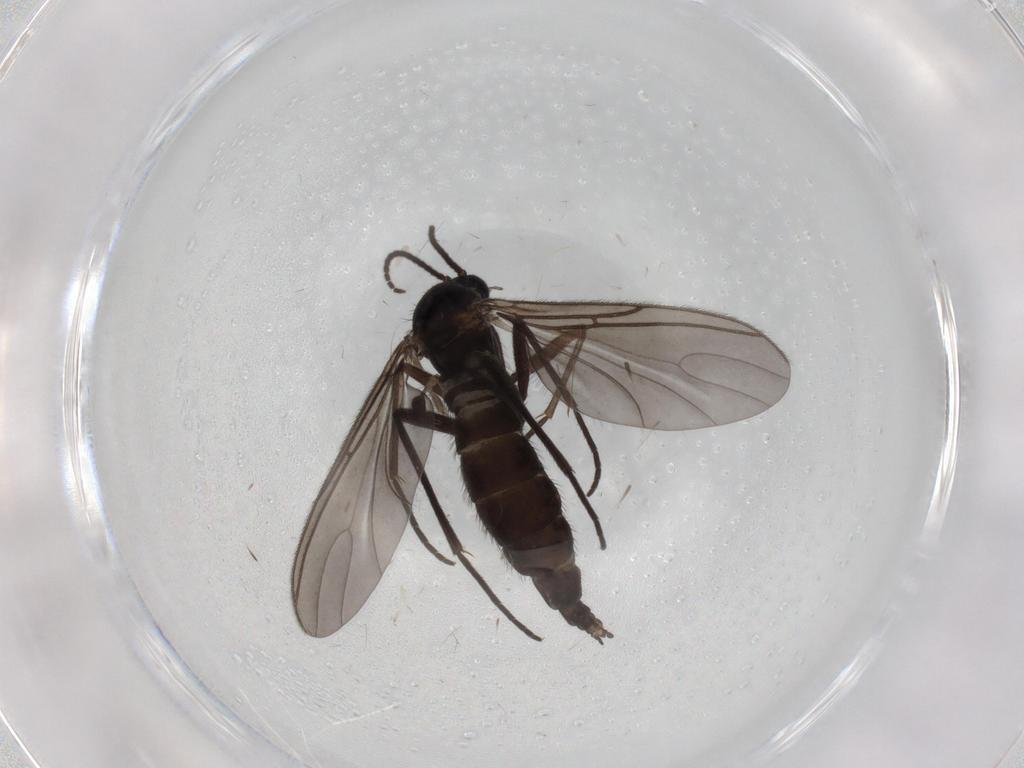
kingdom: Animalia
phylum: Arthropoda
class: Insecta
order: Diptera
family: Sciaridae
